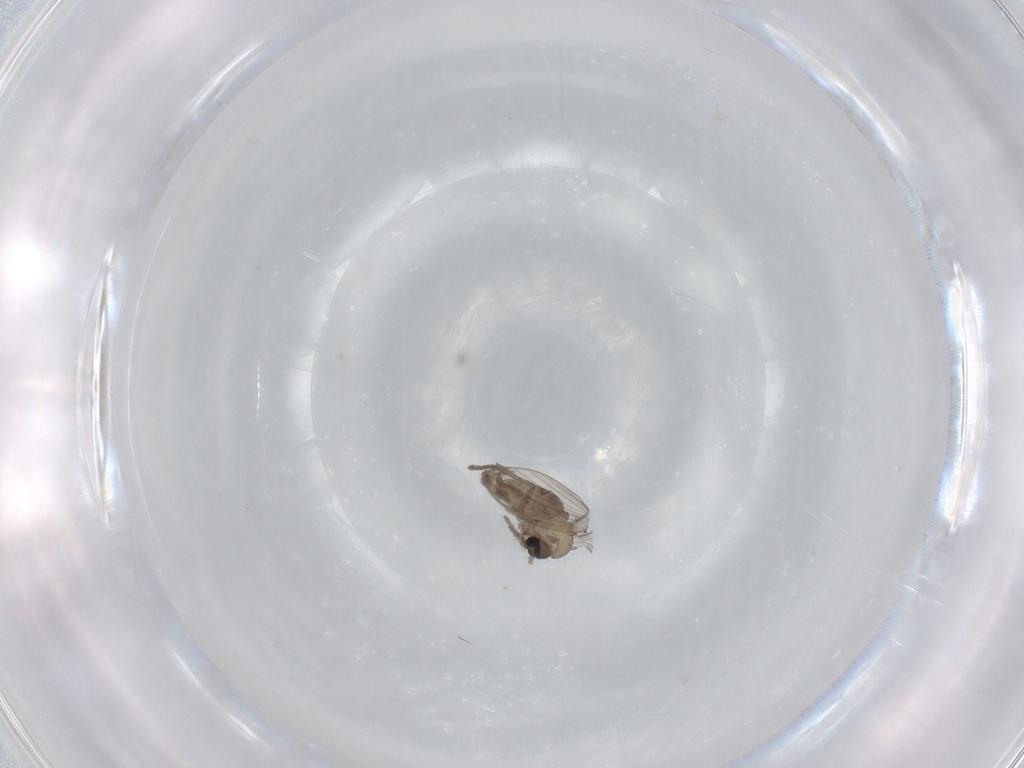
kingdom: Animalia
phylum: Arthropoda
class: Insecta
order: Diptera
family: Psychodidae
